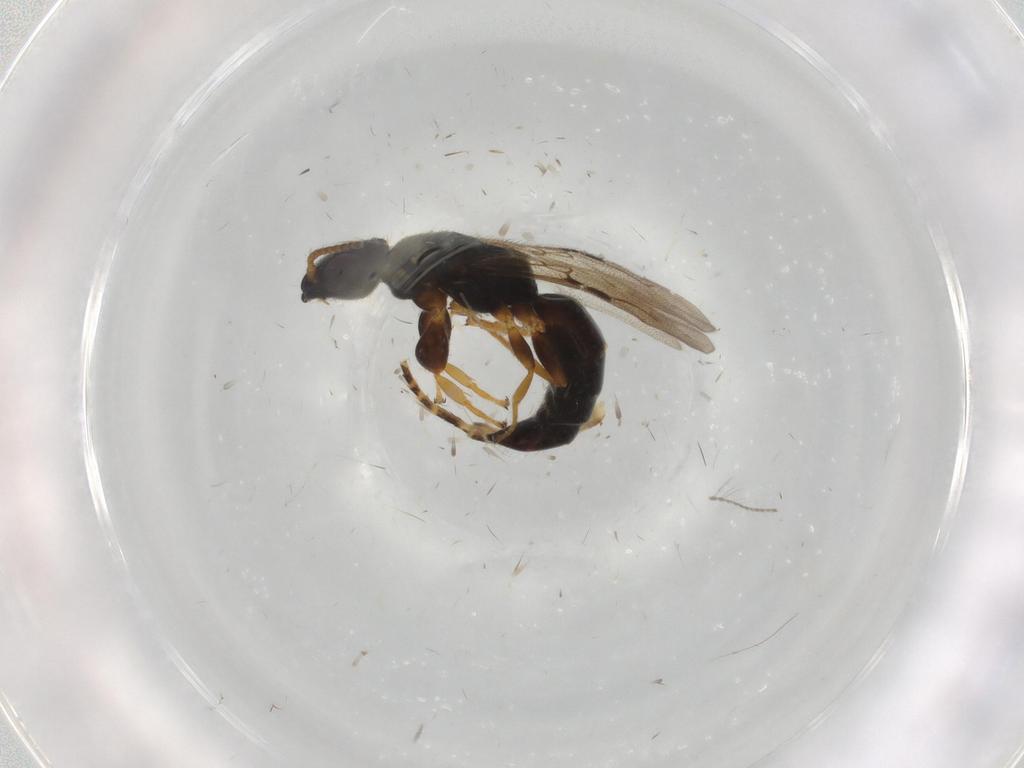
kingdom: Animalia
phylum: Arthropoda
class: Insecta
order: Hymenoptera
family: Bethylidae
